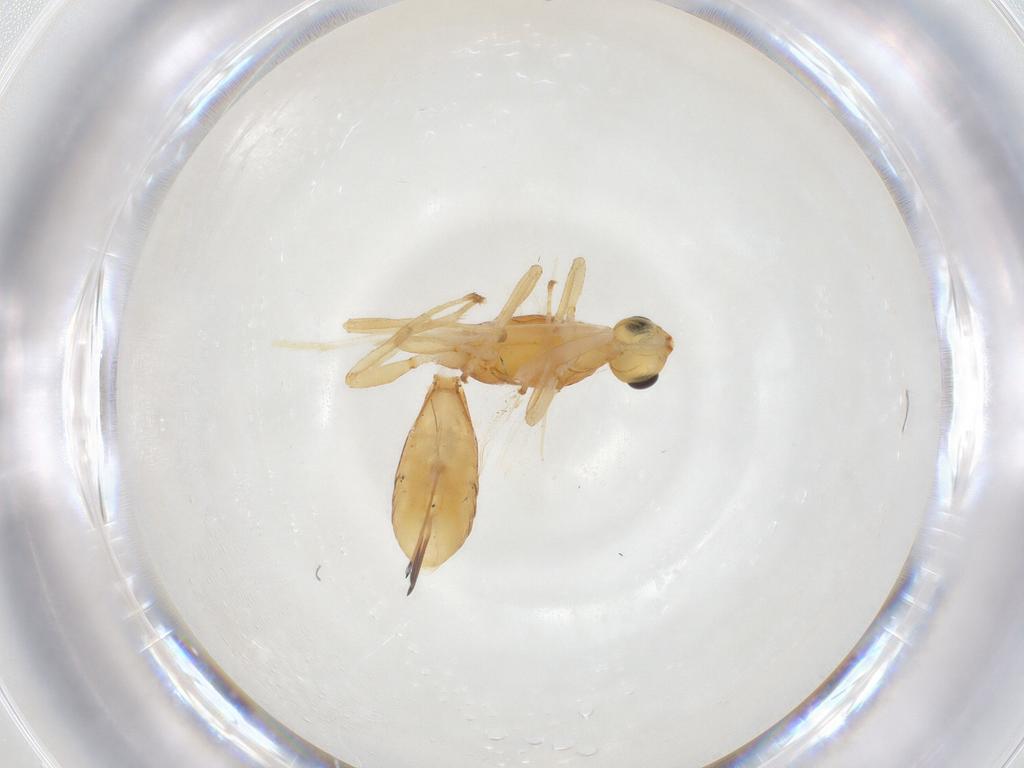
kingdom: Animalia
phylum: Arthropoda
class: Insecta
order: Hymenoptera
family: Braconidae
